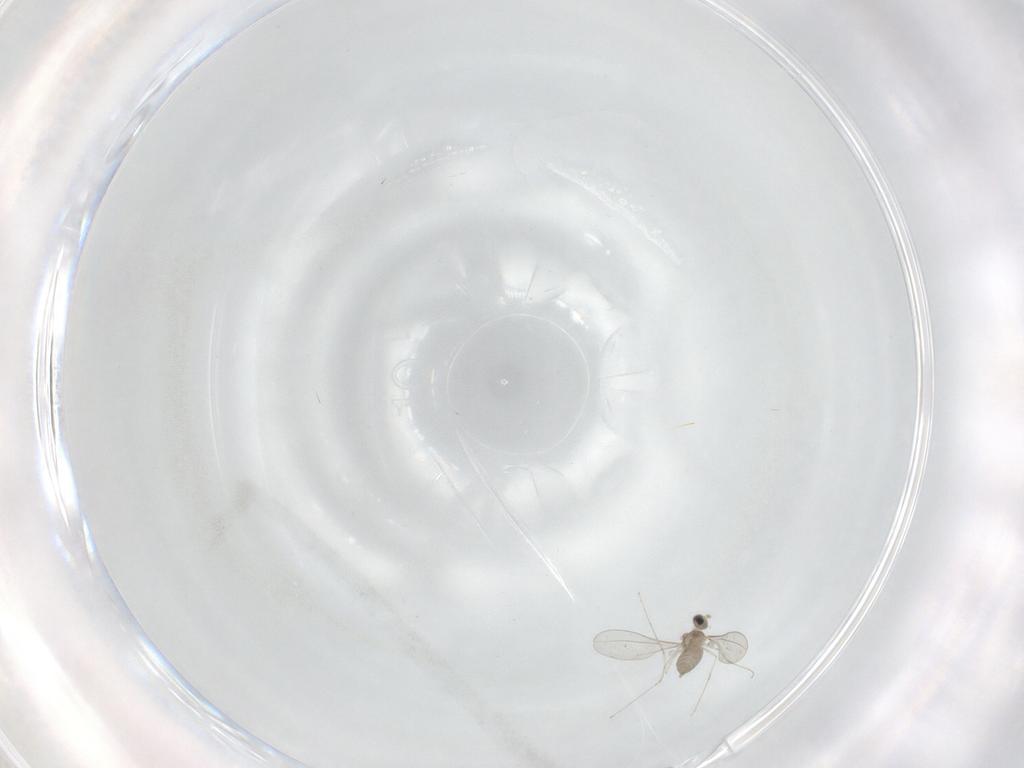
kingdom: Animalia
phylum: Arthropoda
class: Insecta
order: Diptera
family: Cecidomyiidae
